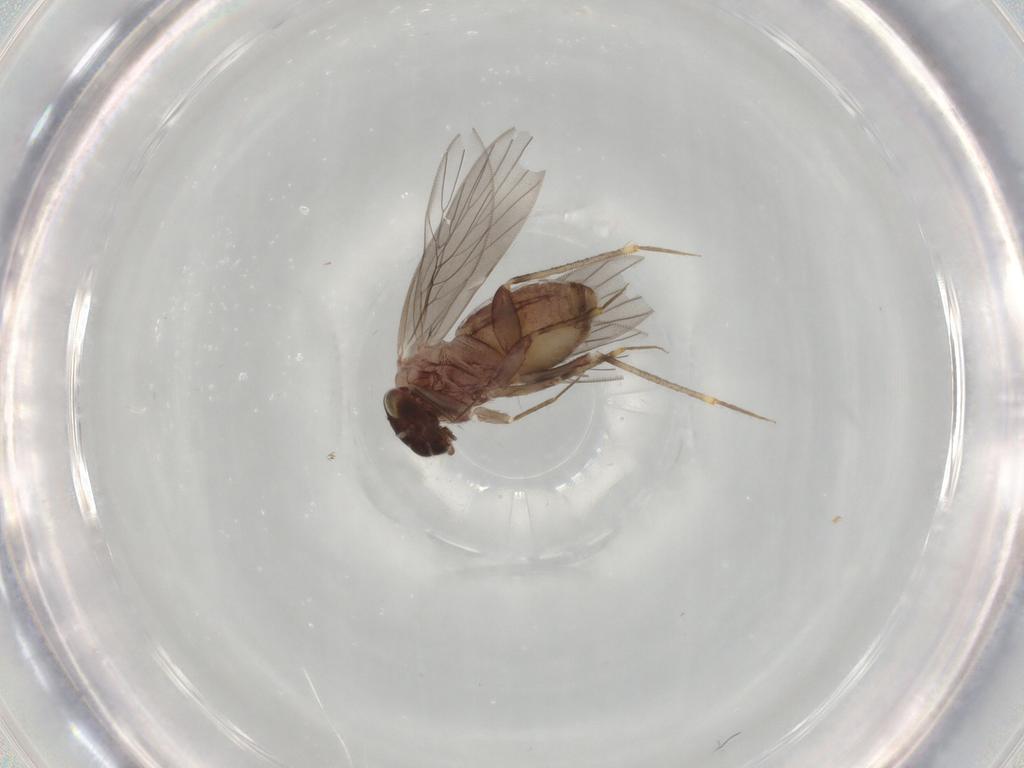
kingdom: Animalia
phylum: Arthropoda
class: Insecta
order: Psocodea
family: Lepidopsocidae
